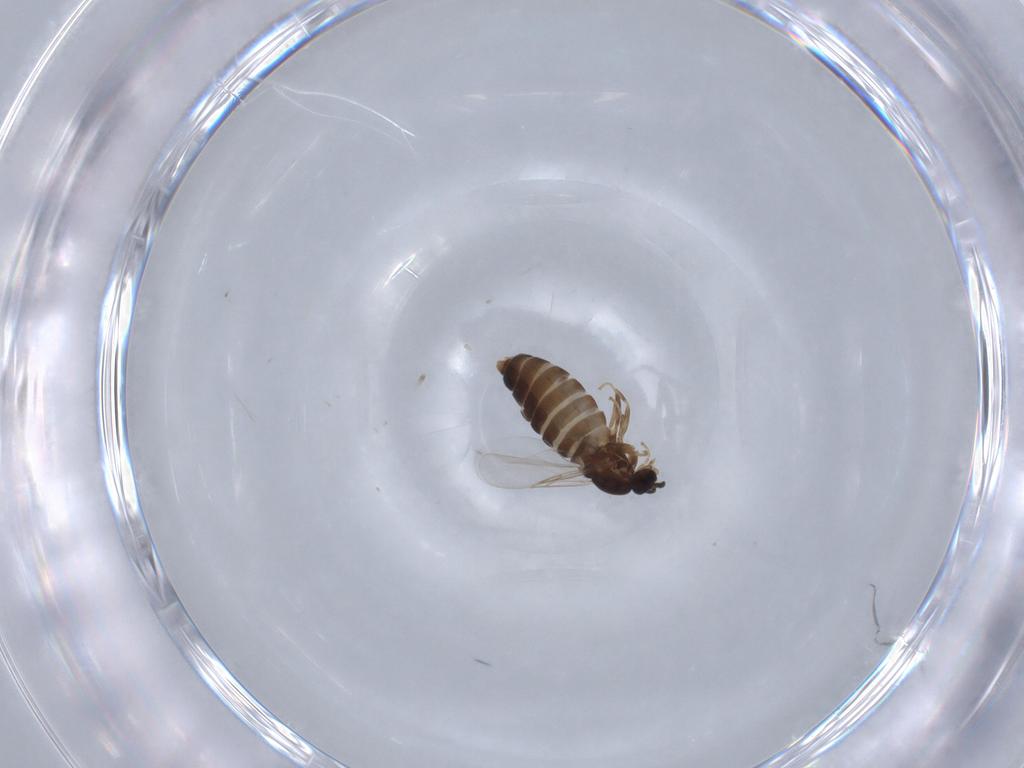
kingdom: Animalia
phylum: Arthropoda
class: Insecta
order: Diptera
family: Scatopsidae
